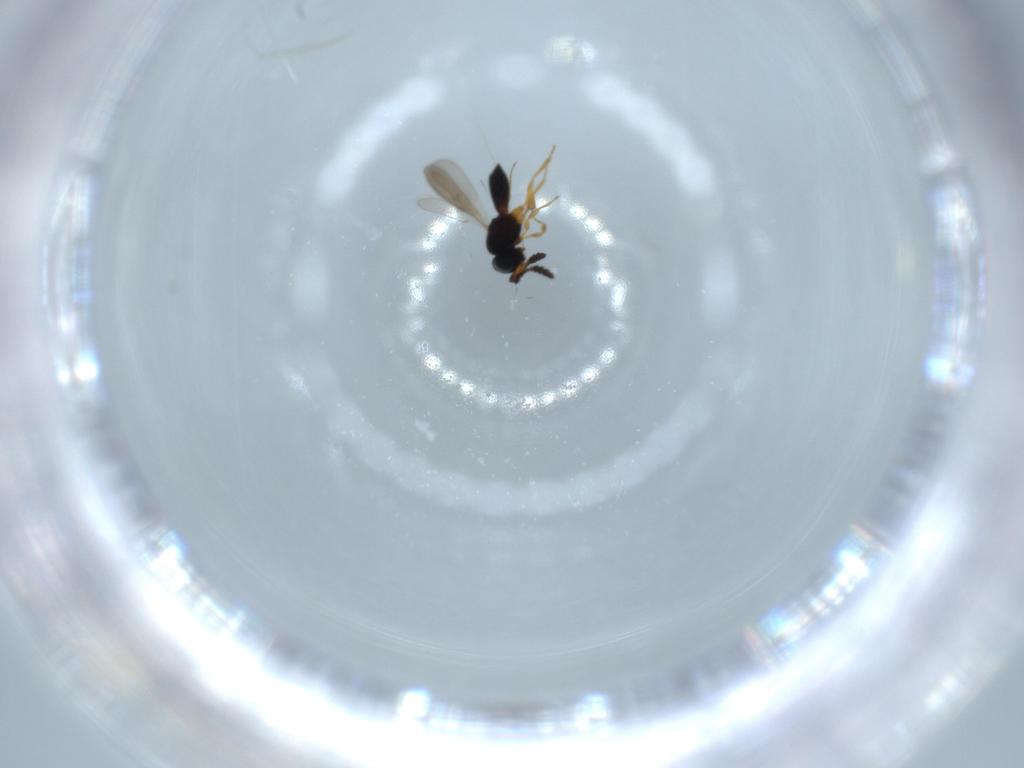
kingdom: Animalia
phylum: Arthropoda
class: Insecta
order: Hymenoptera
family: Scelionidae
